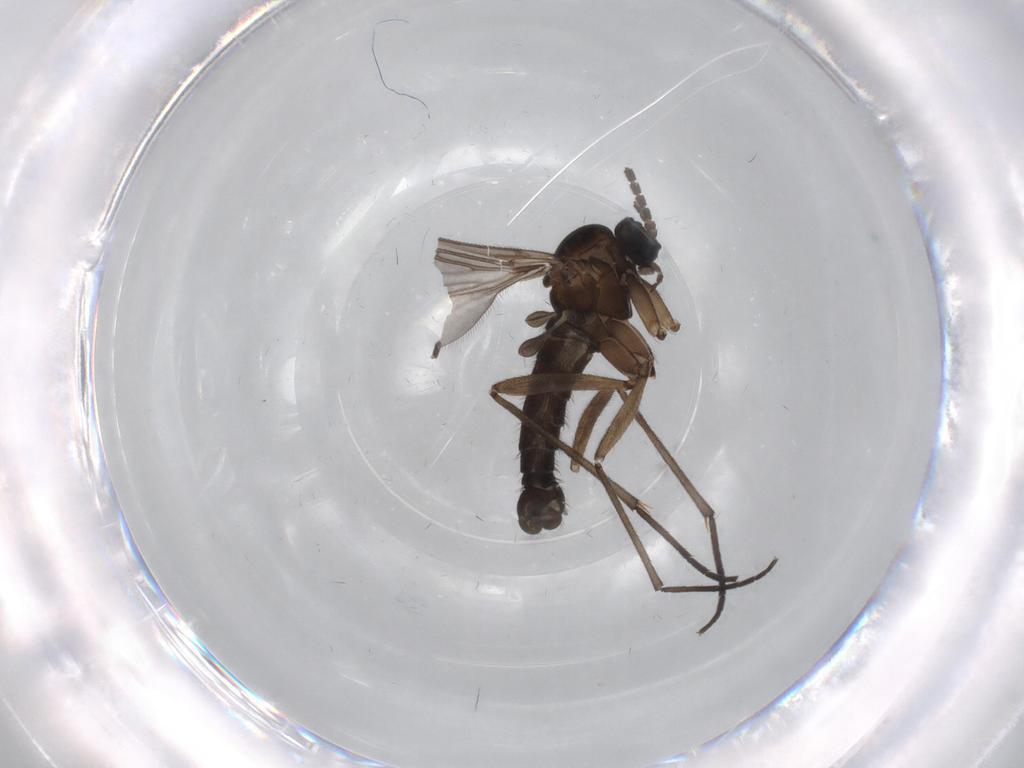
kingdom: Animalia
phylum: Arthropoda
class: Insecta
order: Diptera
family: Sciaridae
